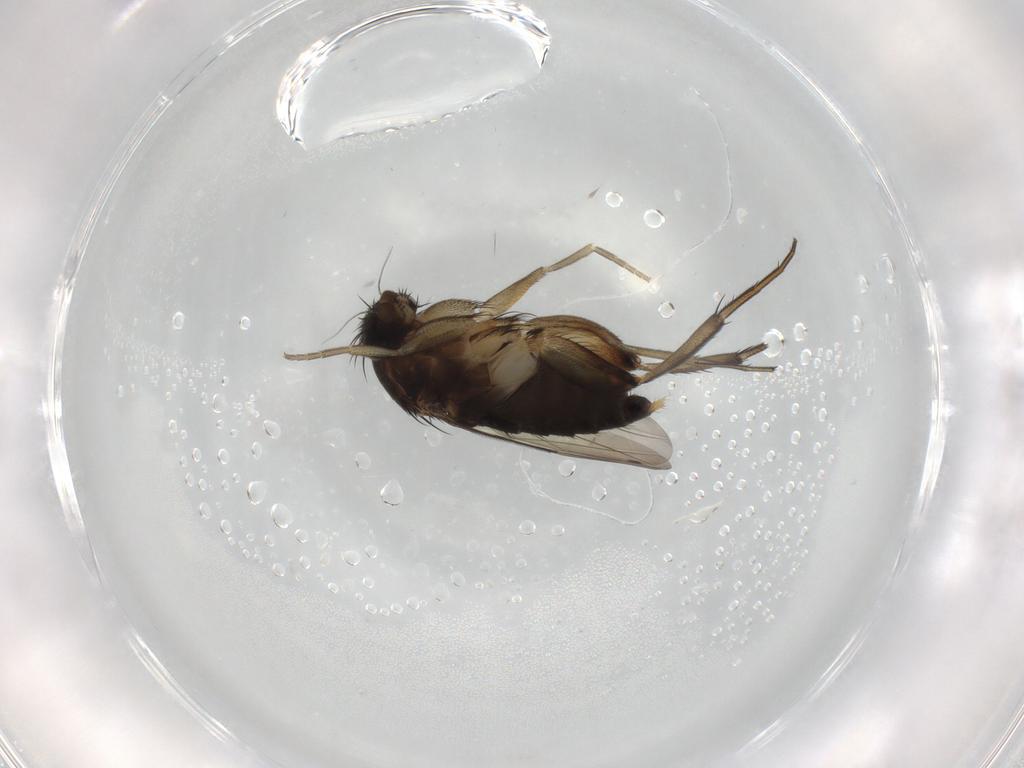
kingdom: Animalia
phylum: Arthropoda
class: Insecta
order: Diptera
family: Phoridae
